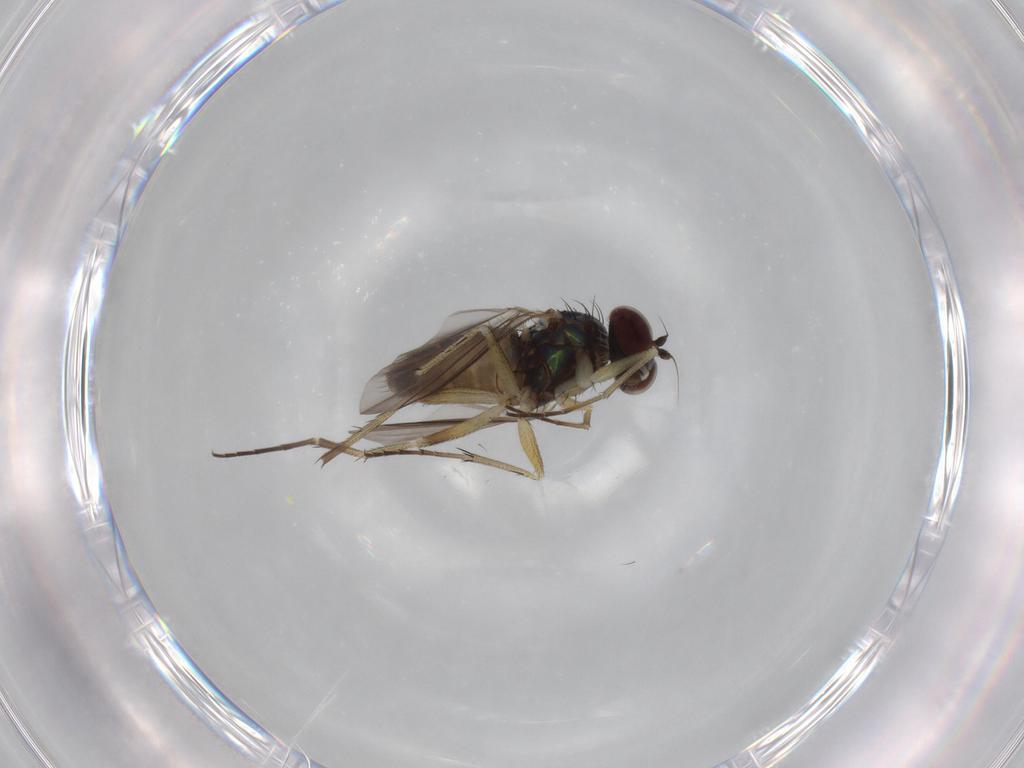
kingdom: Animalia
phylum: Arthropoda
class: Insecta
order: Diptera
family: Dolichopodidae
